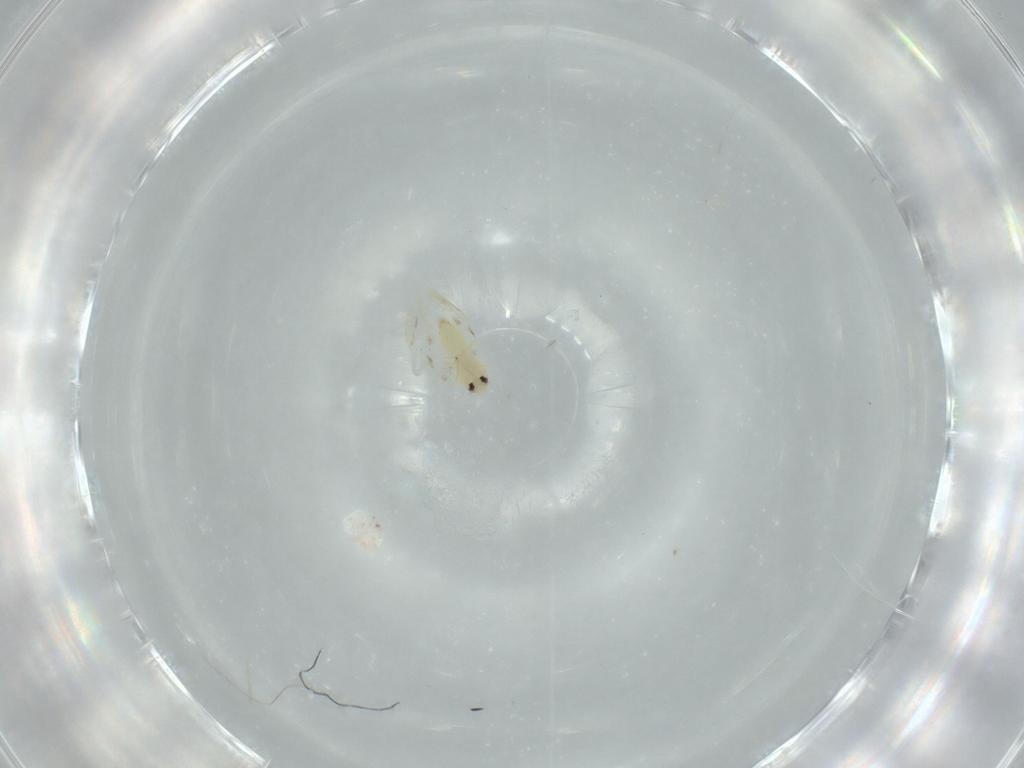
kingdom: Animalia
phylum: Arthropoda
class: Insecta
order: Hemiptera
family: Aleyrodidae
